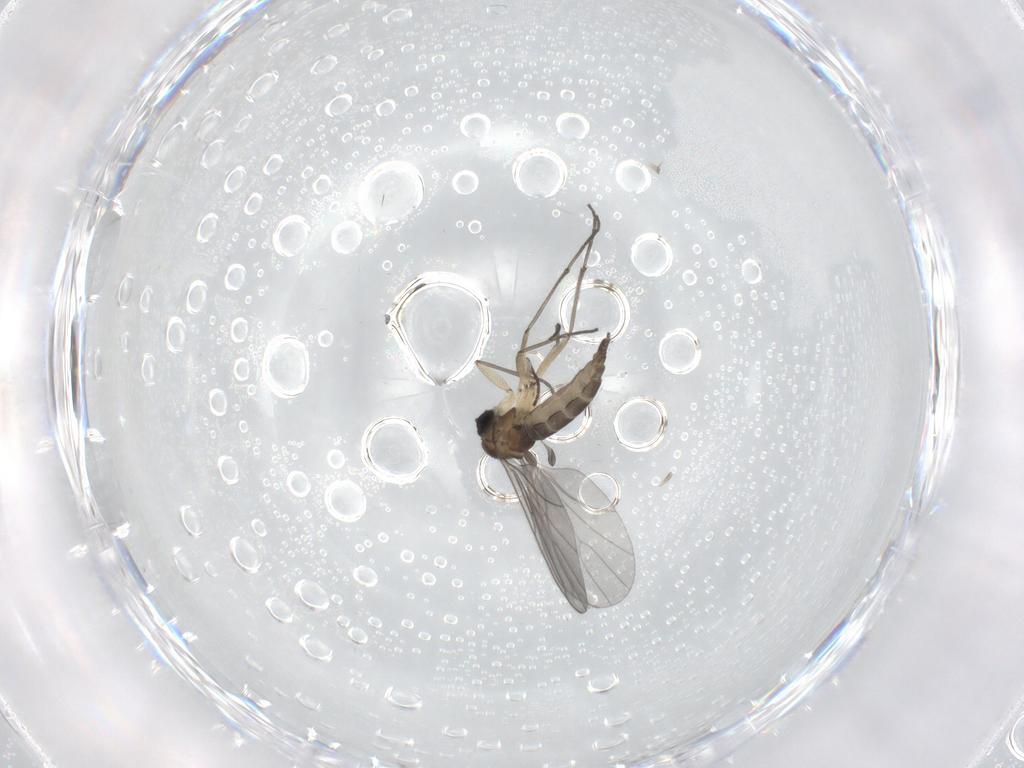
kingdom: Animalia
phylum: Arthropoda
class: Insecta
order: Diptera
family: Sciaridae
